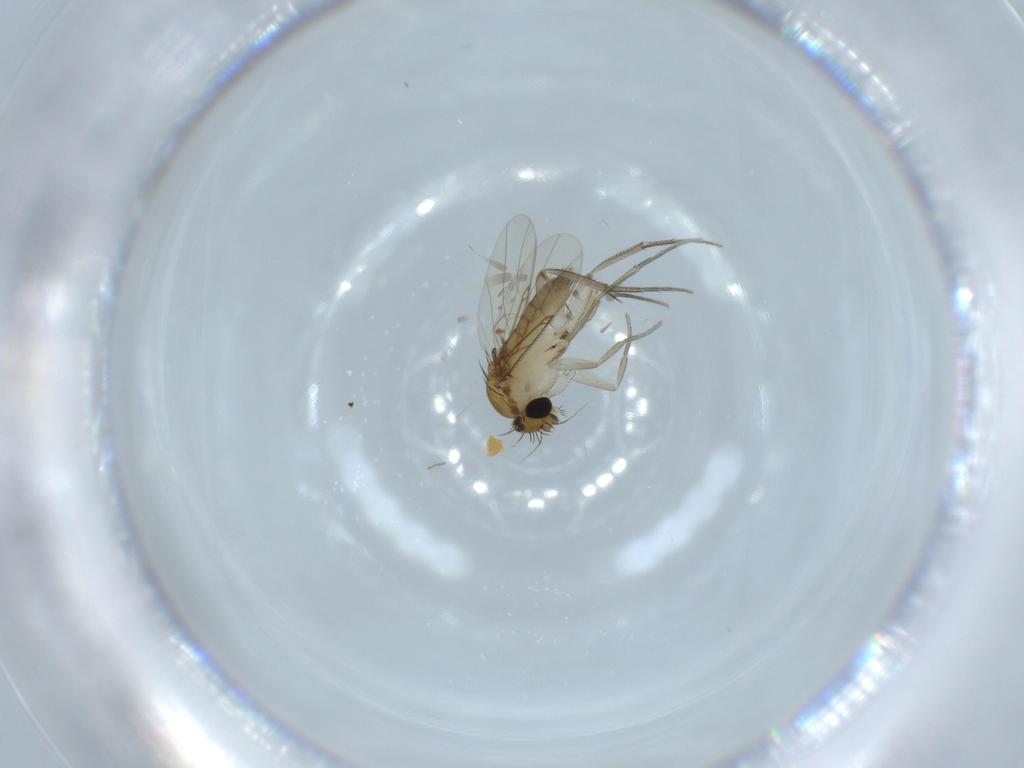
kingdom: Animalia
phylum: Arthropoda
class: Insecta
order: Diptera
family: Phoridae
